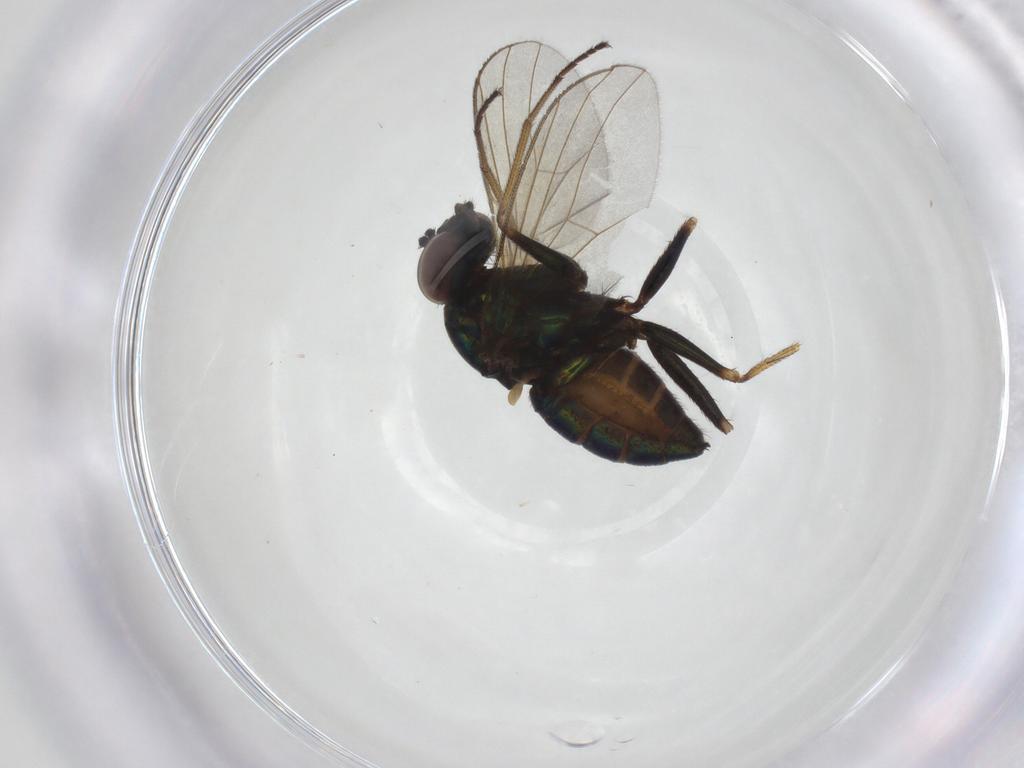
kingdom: Animalia
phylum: Arthropoda
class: Insecta
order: Diptera
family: Dolichopodidae
